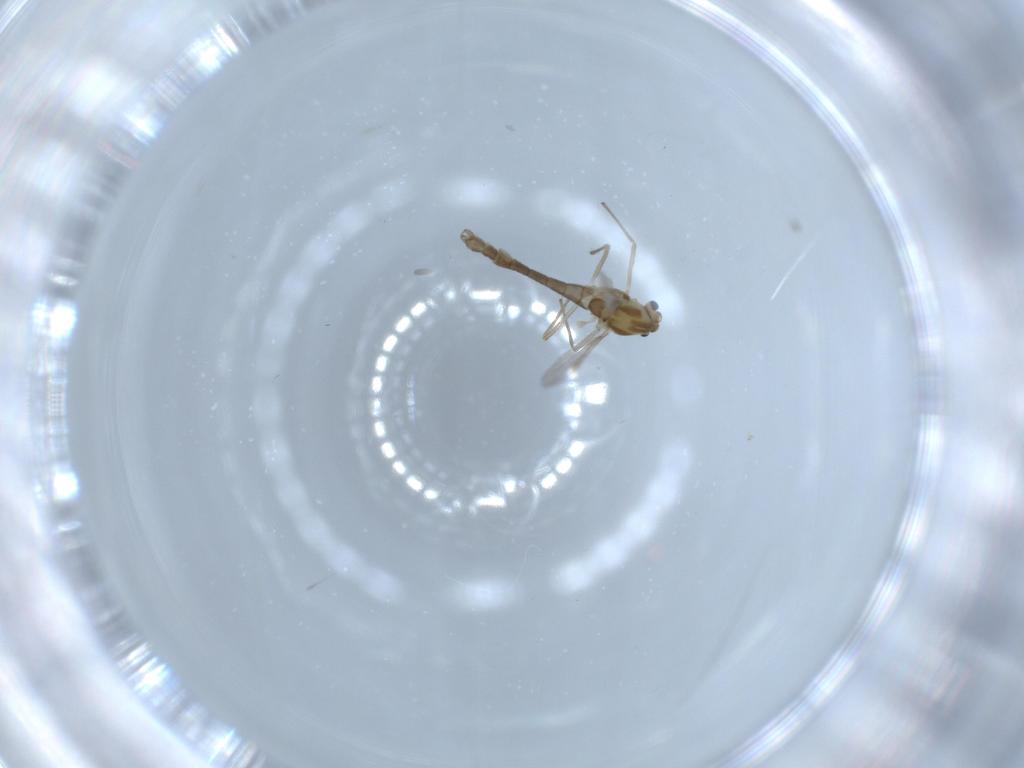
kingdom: Animalia
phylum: Arthropoda
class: Insecta
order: Diptera
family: Chironomidae
